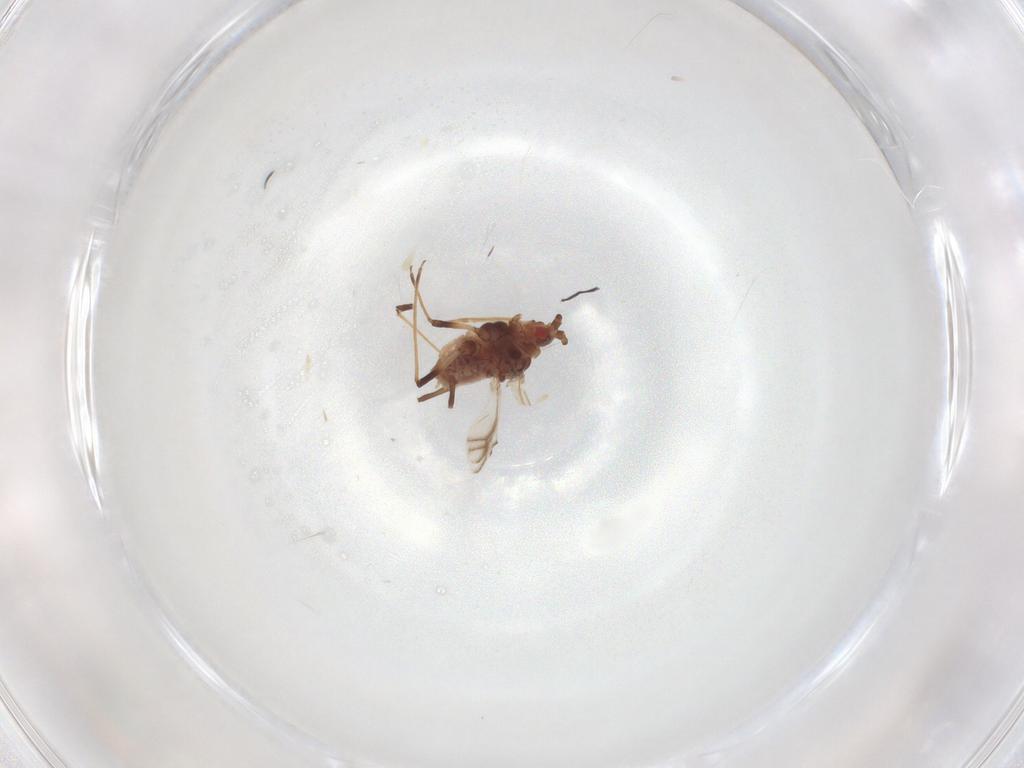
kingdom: Animalia
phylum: Arthropoda
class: Insecta
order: Hemiptera
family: Aphididae
